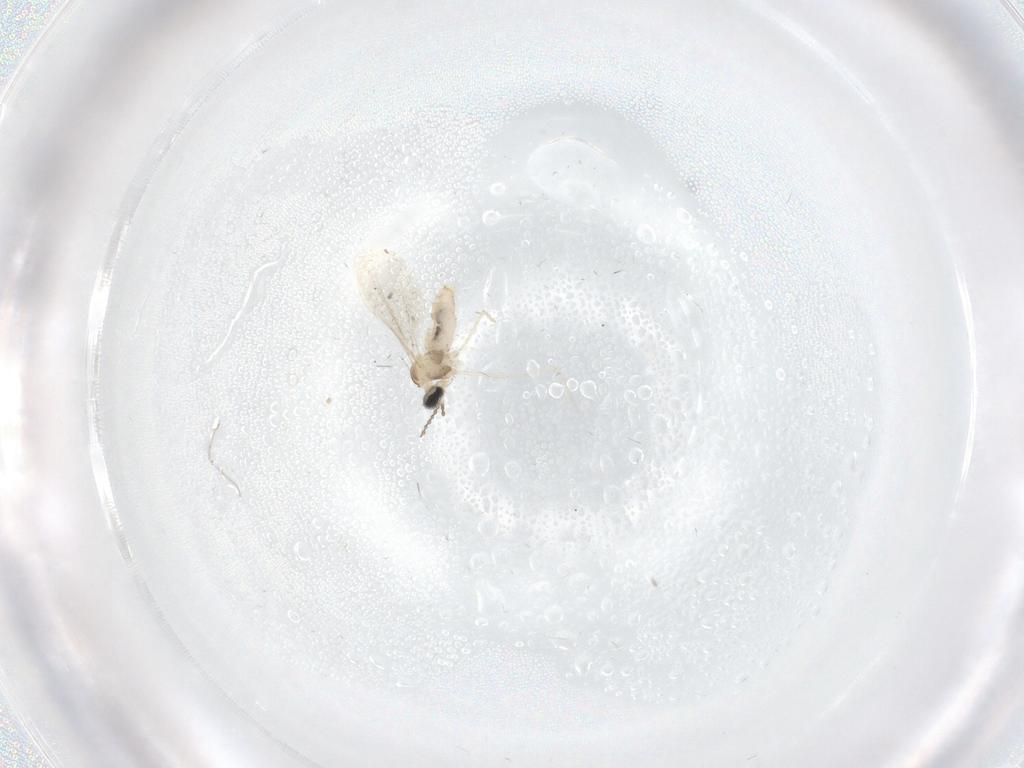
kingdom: Animalia
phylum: Arthropoda
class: Insecta
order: Diptera
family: Cecidomyiidae
